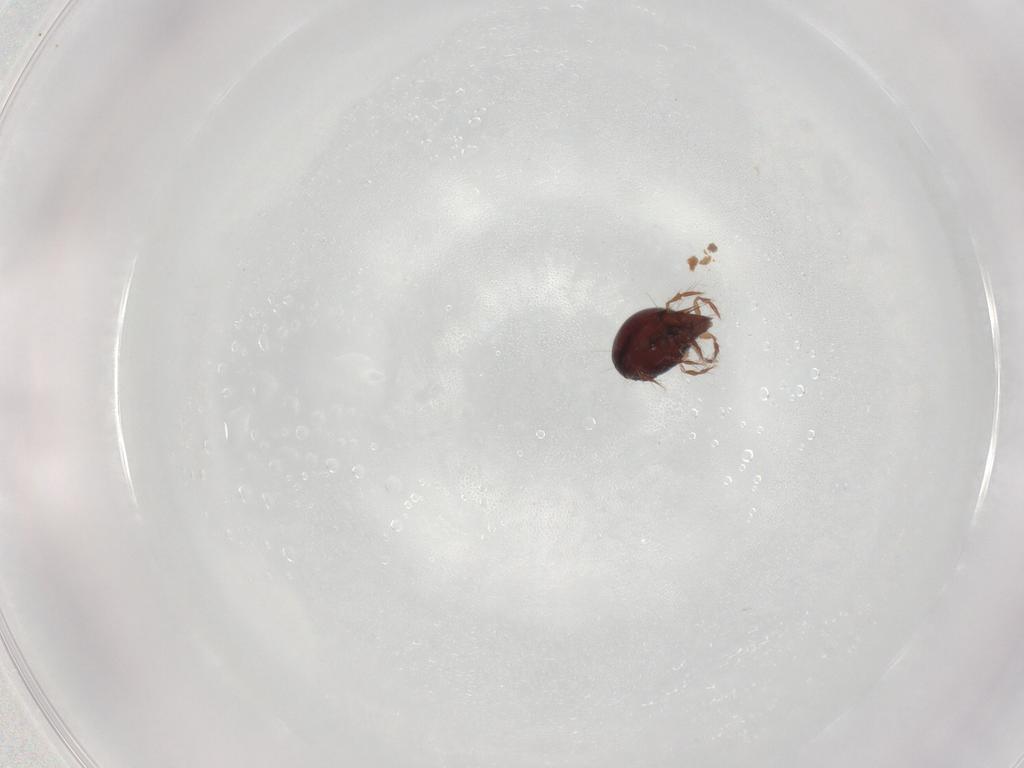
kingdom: Animalia
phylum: Arthropoda
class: Arachnida
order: Sarcoptiformes
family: Ceratoppiidae
